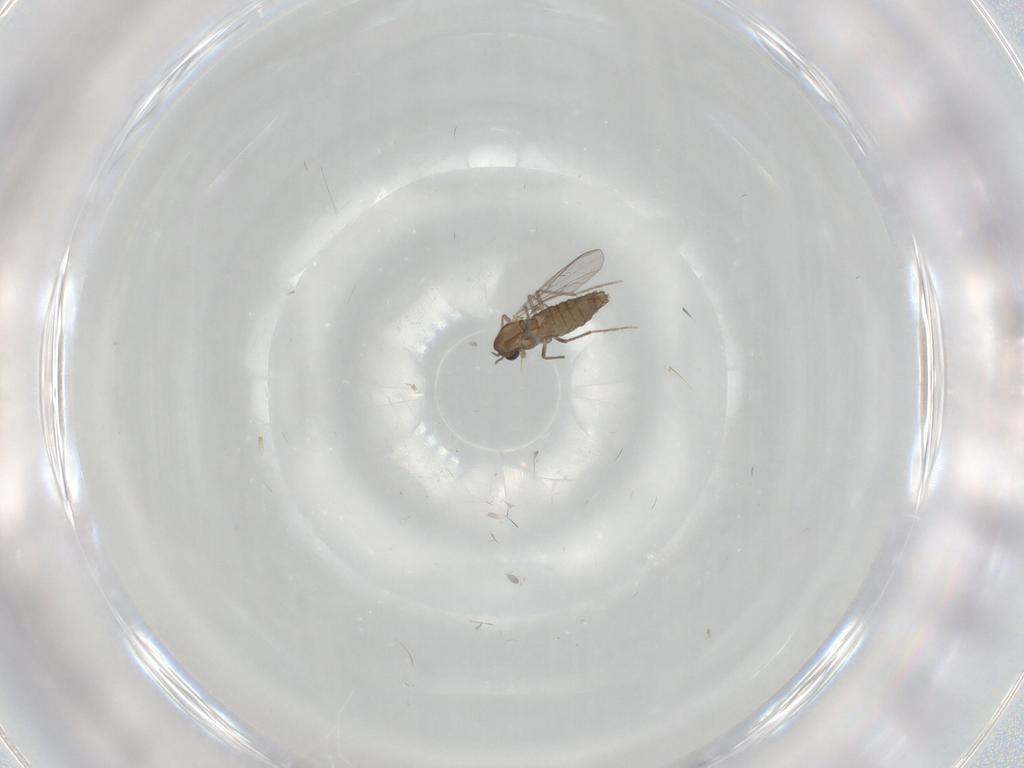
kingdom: Animalia
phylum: Arthropoda
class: Insecta
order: Diptera
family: Chironomidae
